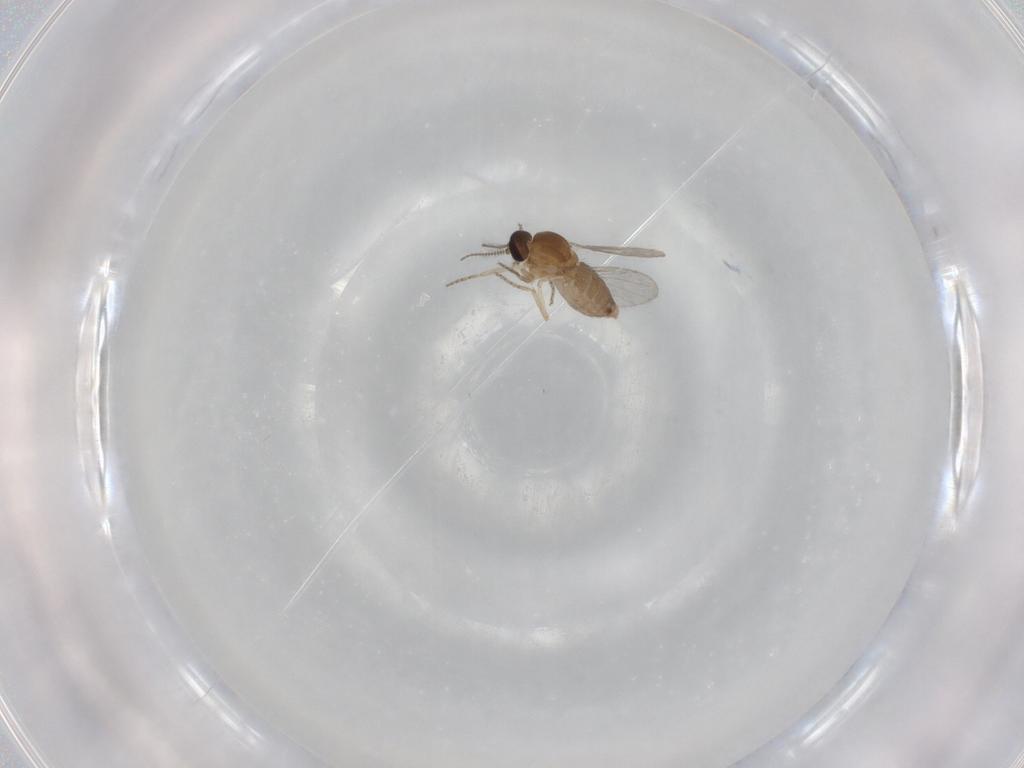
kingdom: Animalia
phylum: Arthropoda
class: Insecta
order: Diptera
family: Ceratopogonidae
